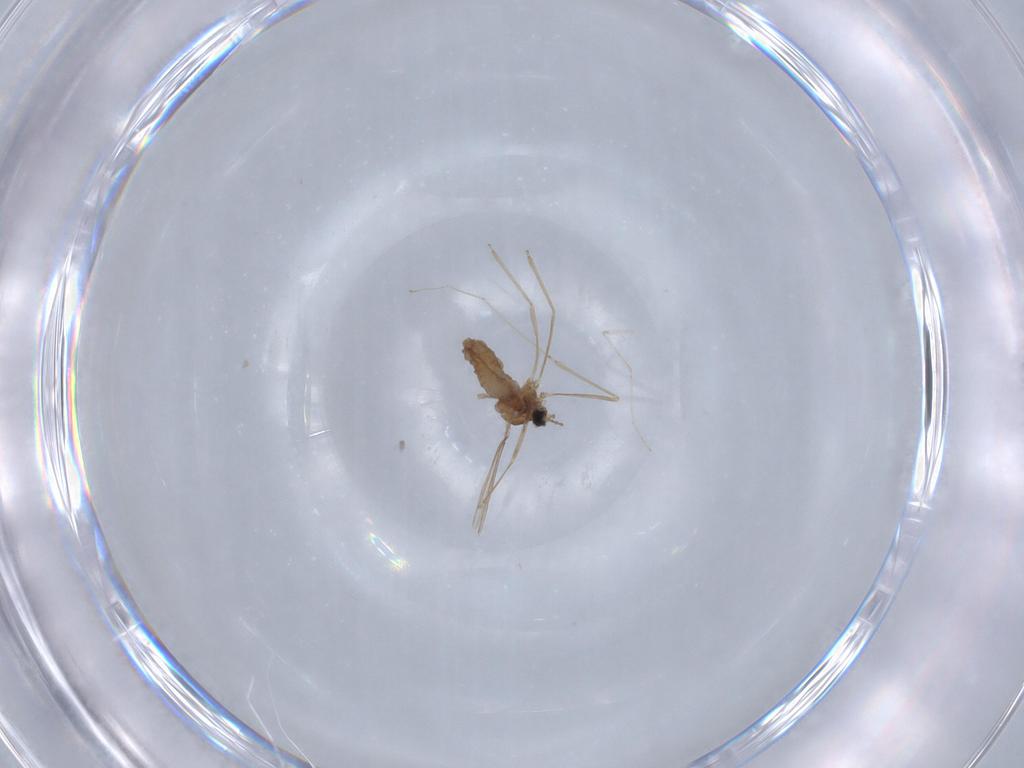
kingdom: Animalia
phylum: Arthropoda
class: Insecta
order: Diptera
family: Cecidomyiidae
